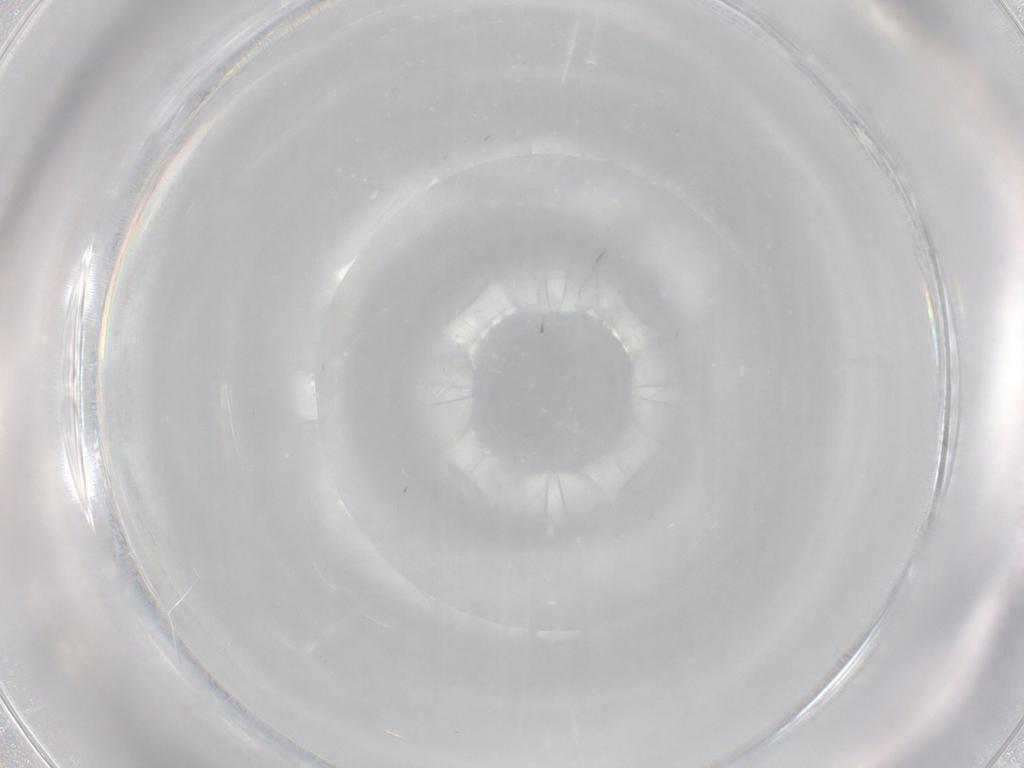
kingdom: Animalia
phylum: Arthropoda
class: Insecta
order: Diptera
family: Cecidomyiidae
